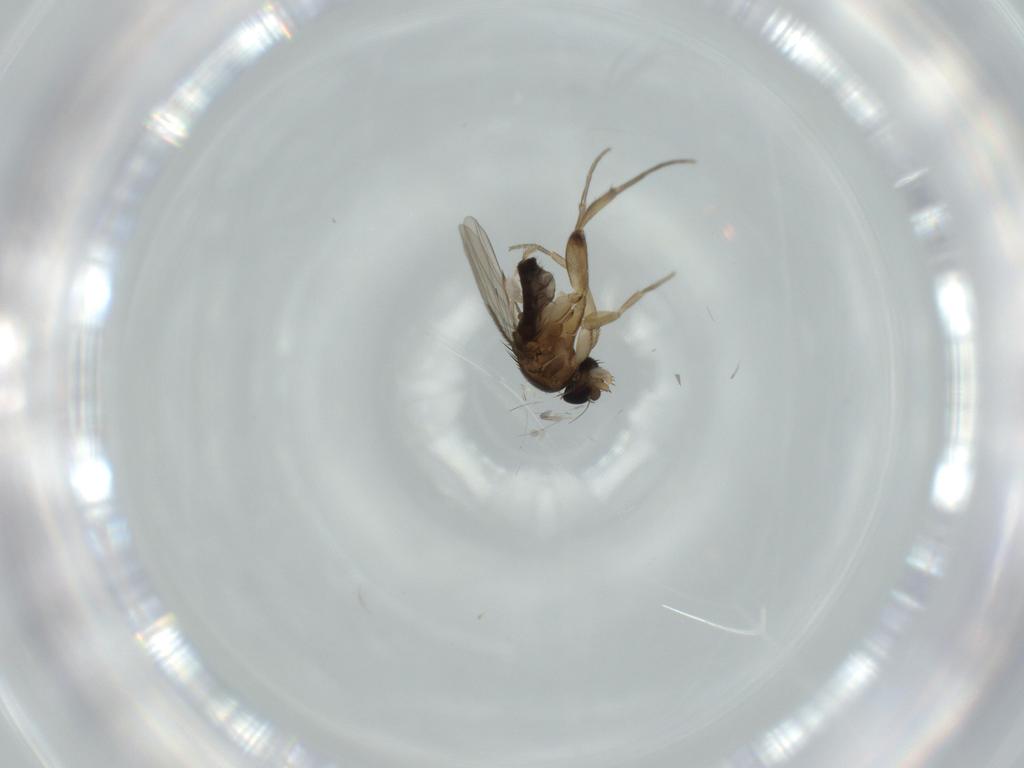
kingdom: Animalia
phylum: Arthropoda
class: Insecta
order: Diptera
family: Phoridae
